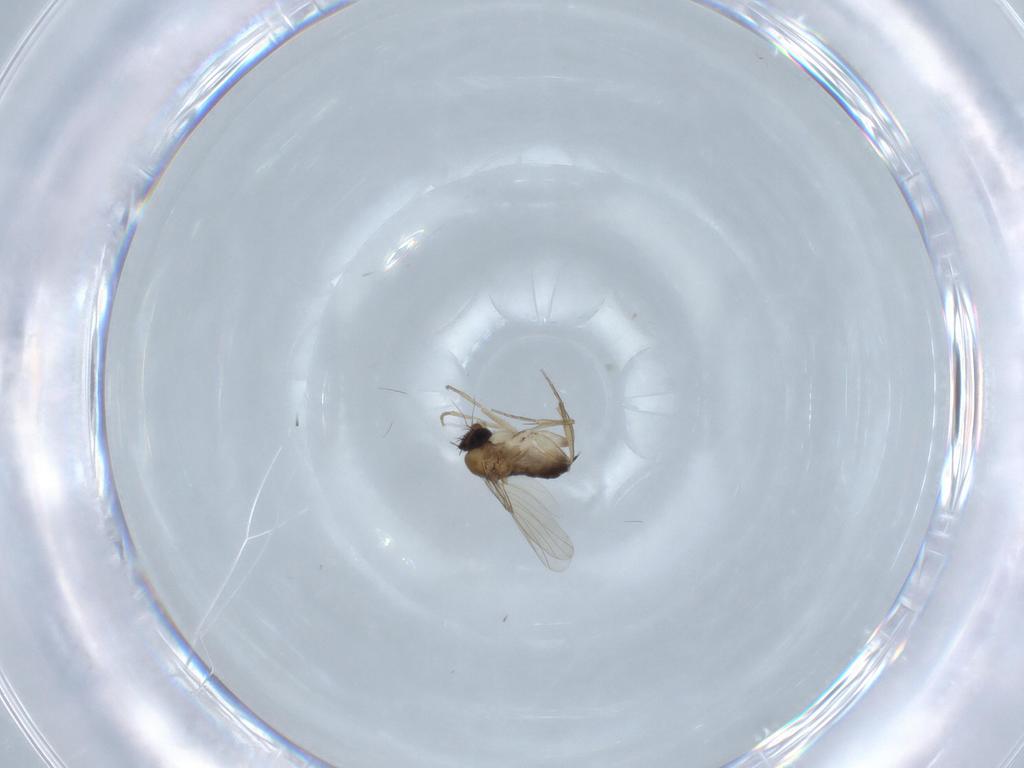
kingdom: Animalia
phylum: Arthropoda
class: Insecta
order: Diptera
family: Phoridae
